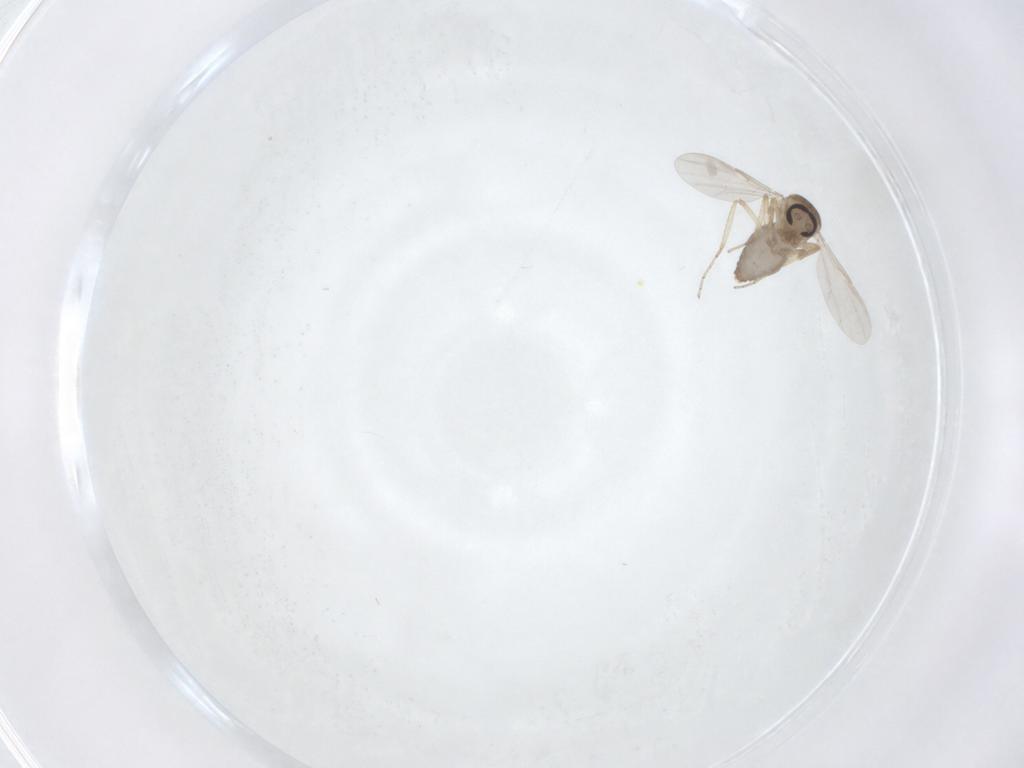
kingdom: Animalia
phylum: Arthropoda
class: Insecta
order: Diptera
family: Ceratopogonidae
